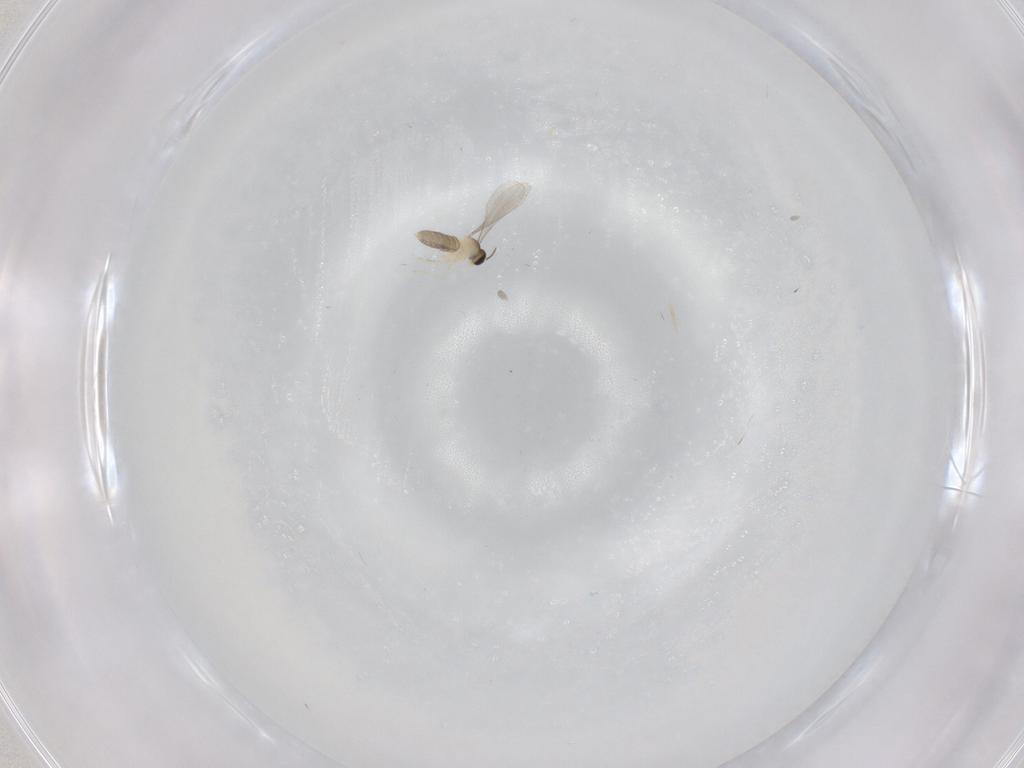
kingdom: Animalia
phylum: Arthropoda
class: Insecta
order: Diptera
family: Cecidomyiidae
